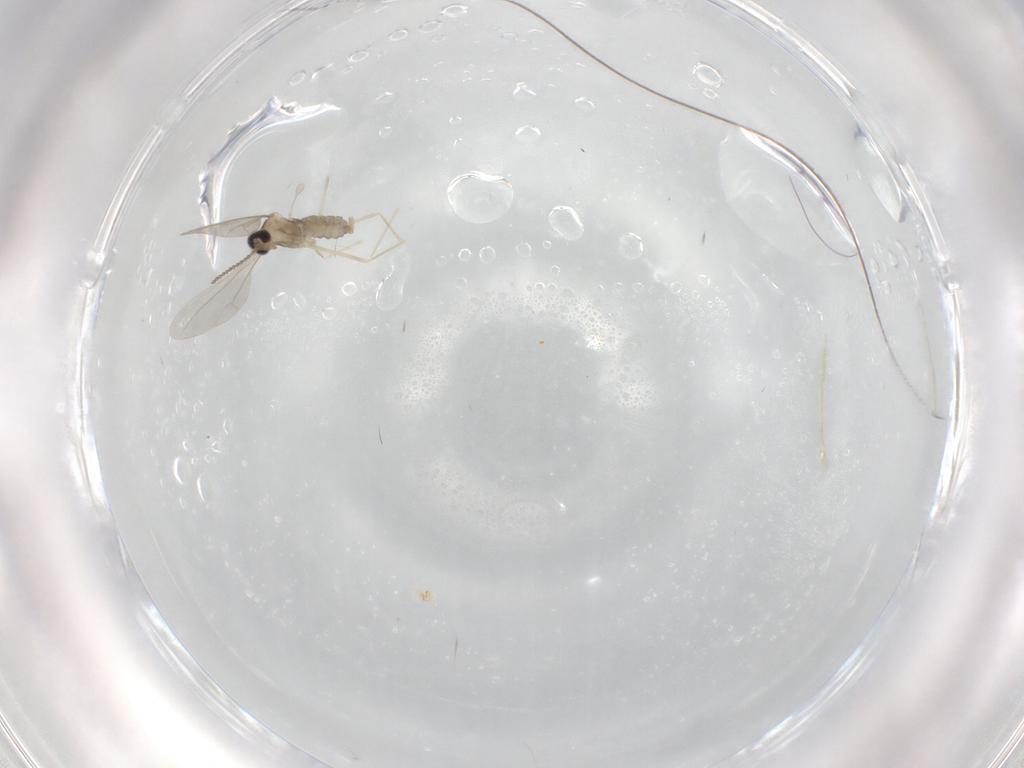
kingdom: Animalia
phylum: Arthropoda
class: Insecta
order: Diptera
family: Cecidomyiidae
